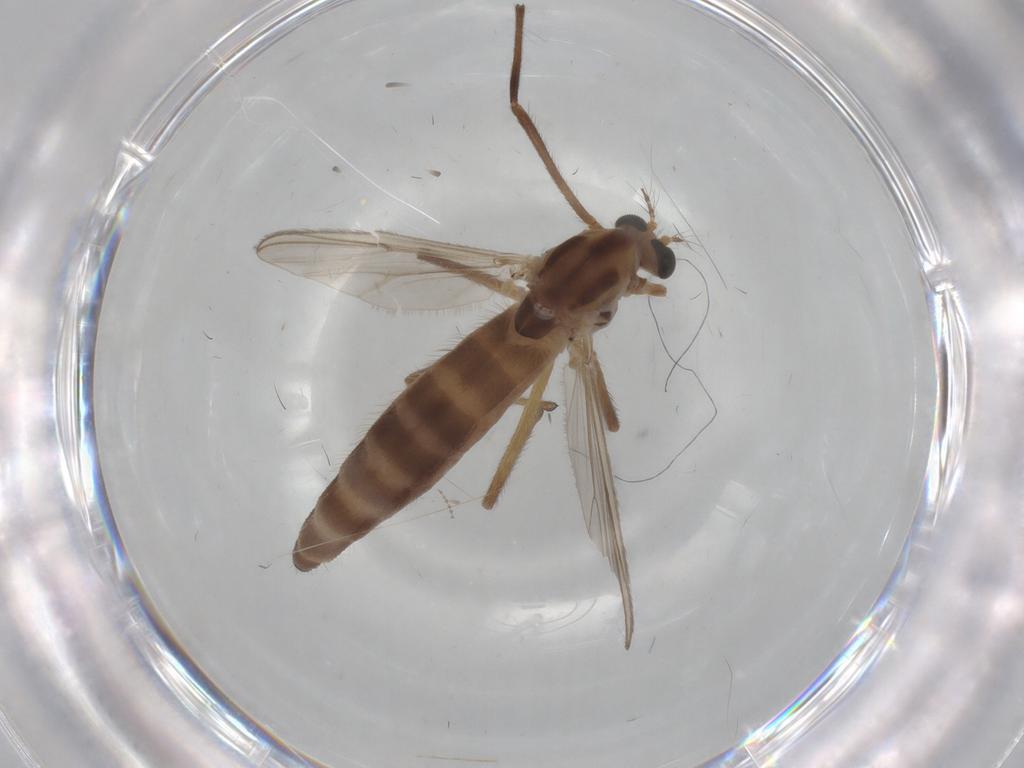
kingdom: Animalia
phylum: Arthropoda
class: Insecta
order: Diptera
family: Chironomidae
